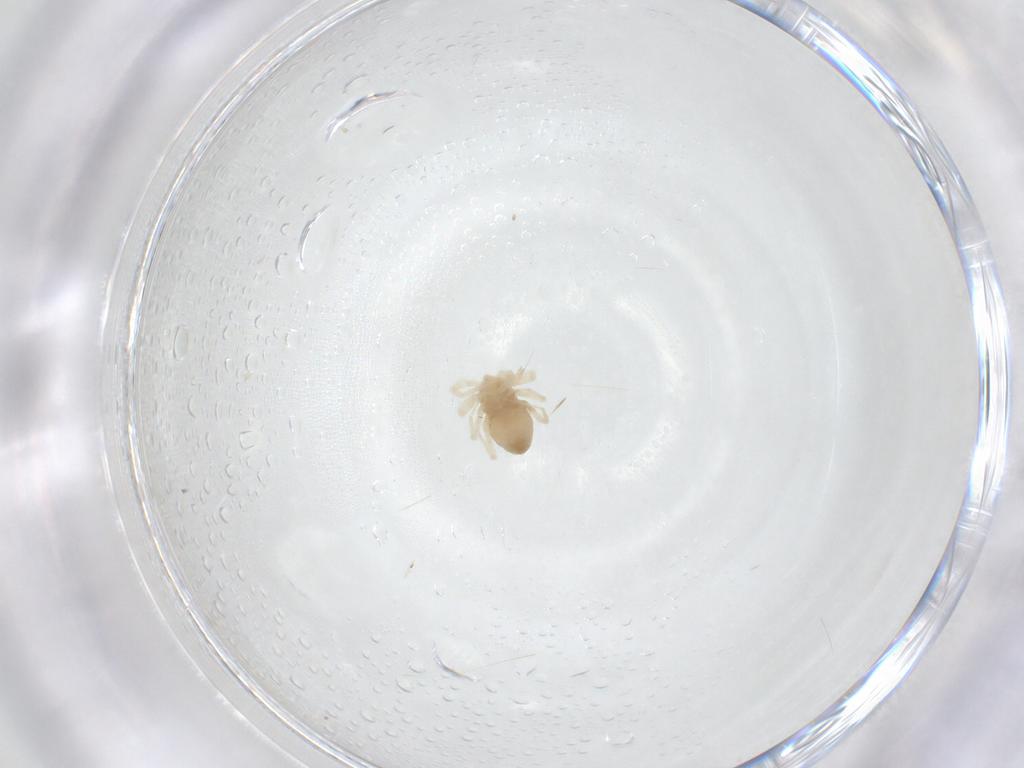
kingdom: Animalia
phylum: Arthropoda
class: Arachnida
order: Trombidiformes
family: Anystidae
